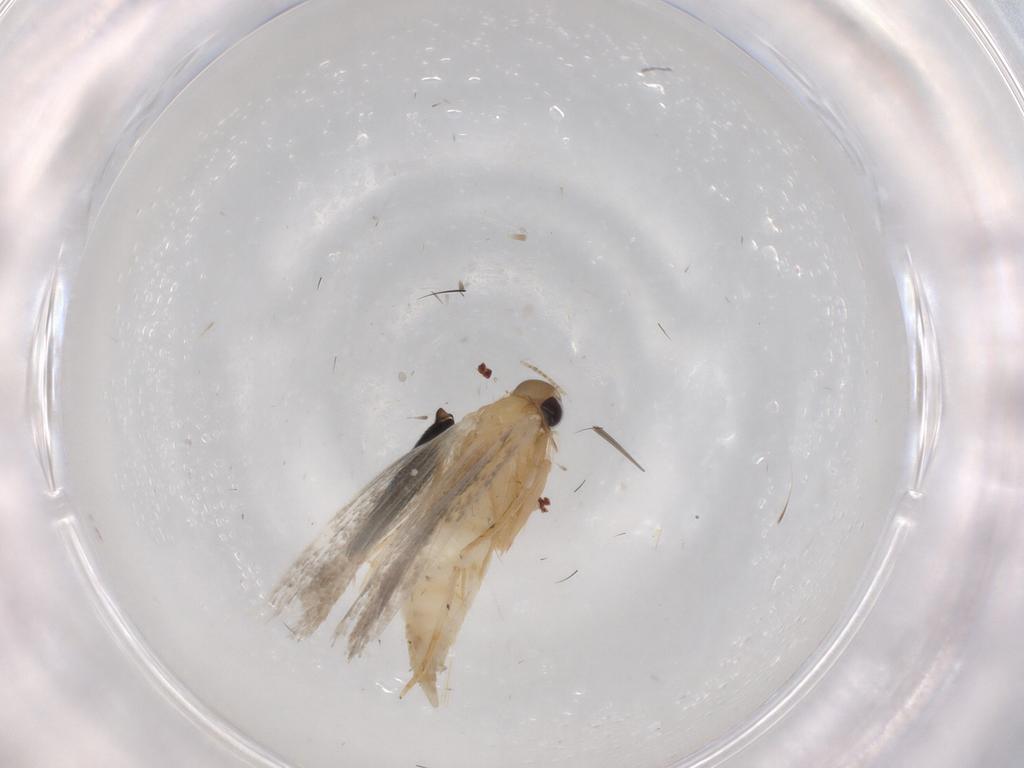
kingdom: Animalia
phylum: Arthropoda
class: Insecta
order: Lepidoptera
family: Autostichidae
